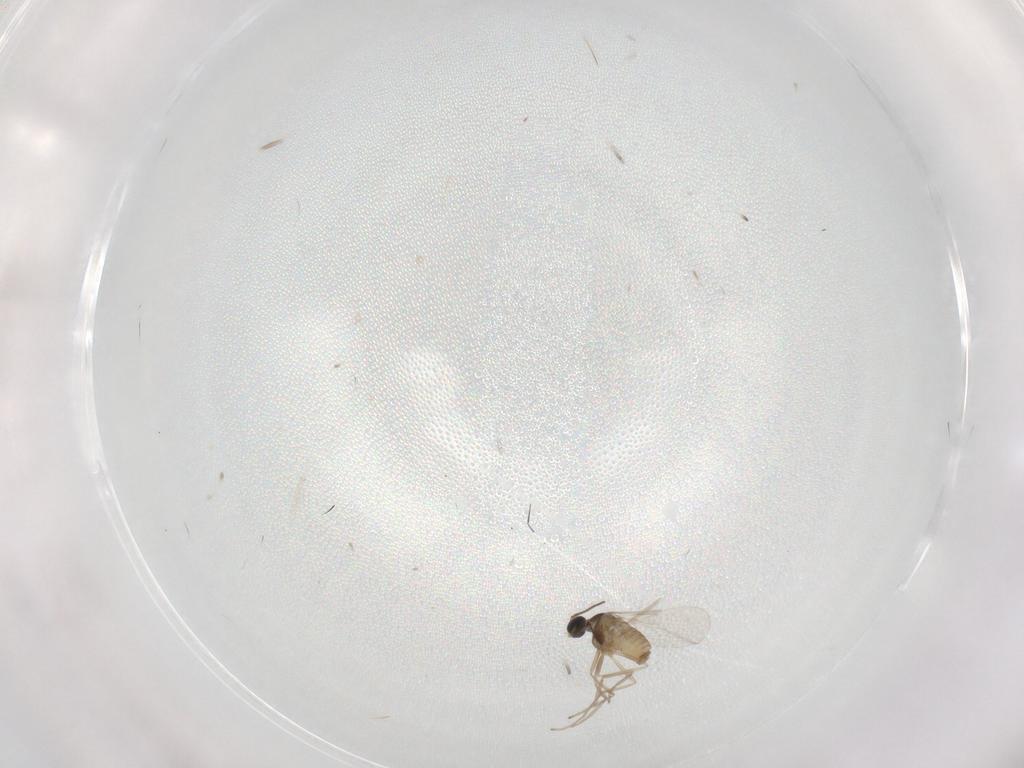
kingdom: Animalia
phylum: Arthropoda
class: Insecta
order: Diptera
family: Cecidomyiidae
